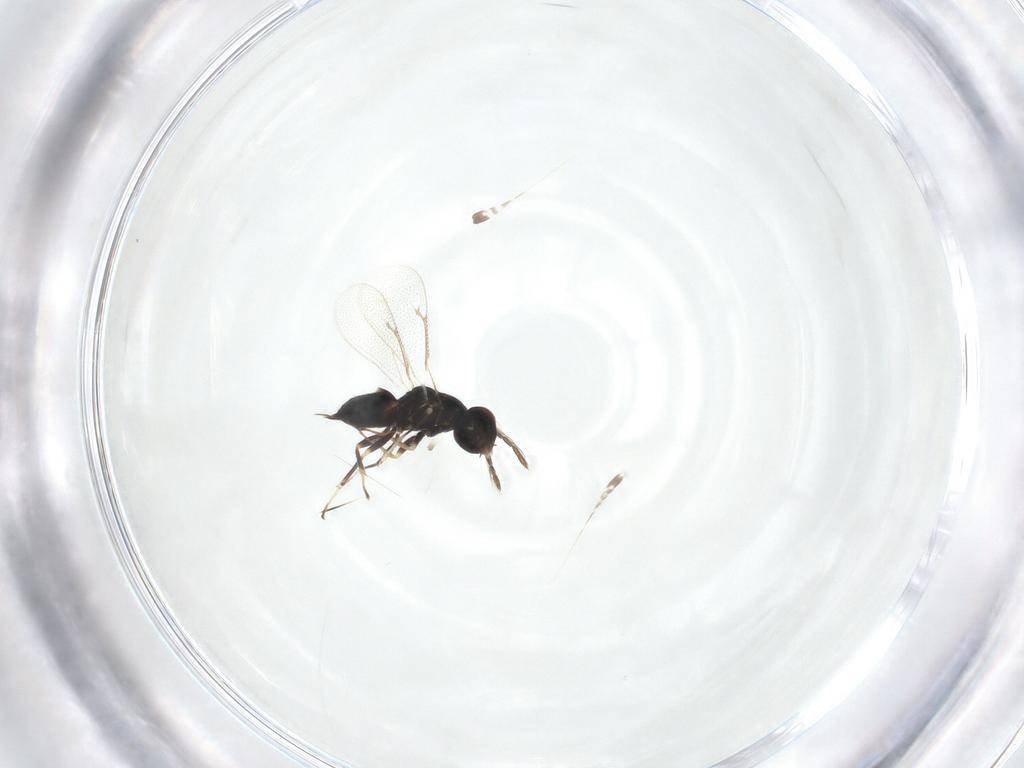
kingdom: Animalia
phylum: Arthropoda
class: Insecta
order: Hymenoptera
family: Eulophidae
